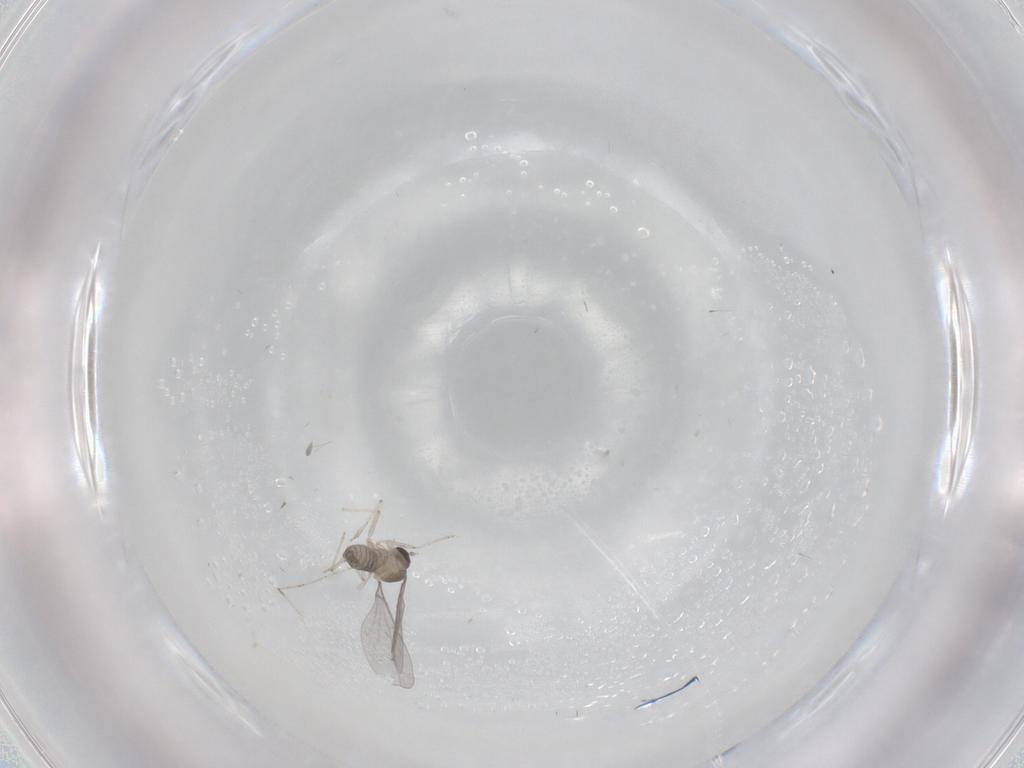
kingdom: Animalia
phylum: Arthropoda
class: Insecta
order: Diptera
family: Cecidomyiidae
